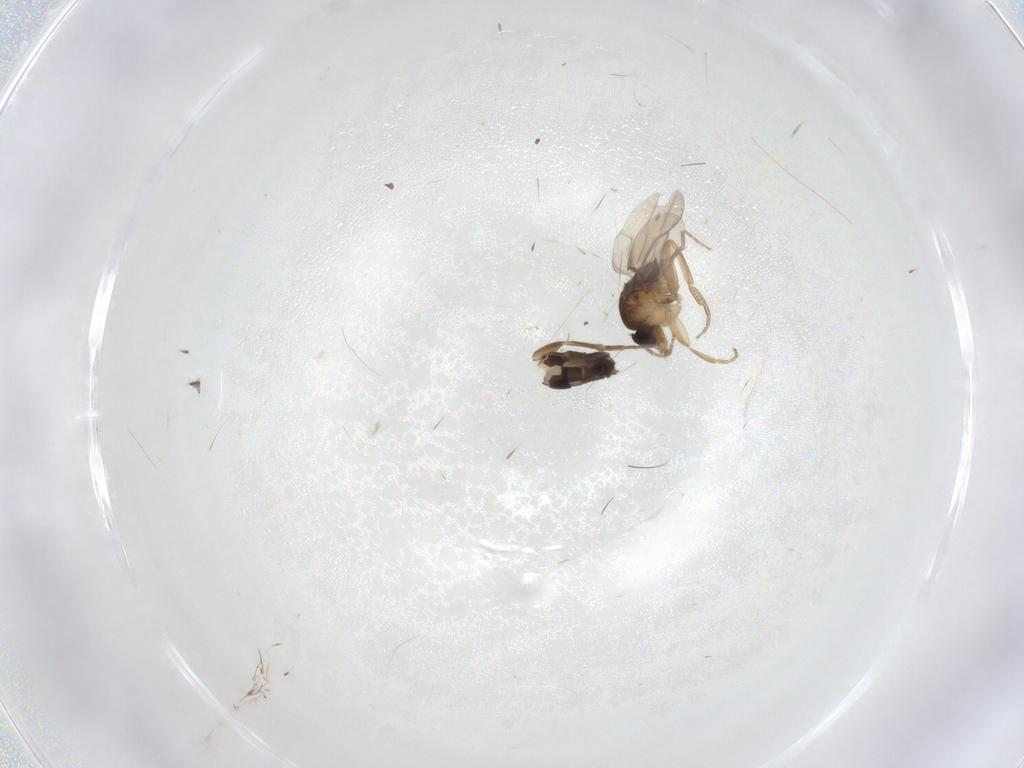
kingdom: Animalia
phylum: Arthropoda
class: Insecta
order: Diptera
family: Phoridae
